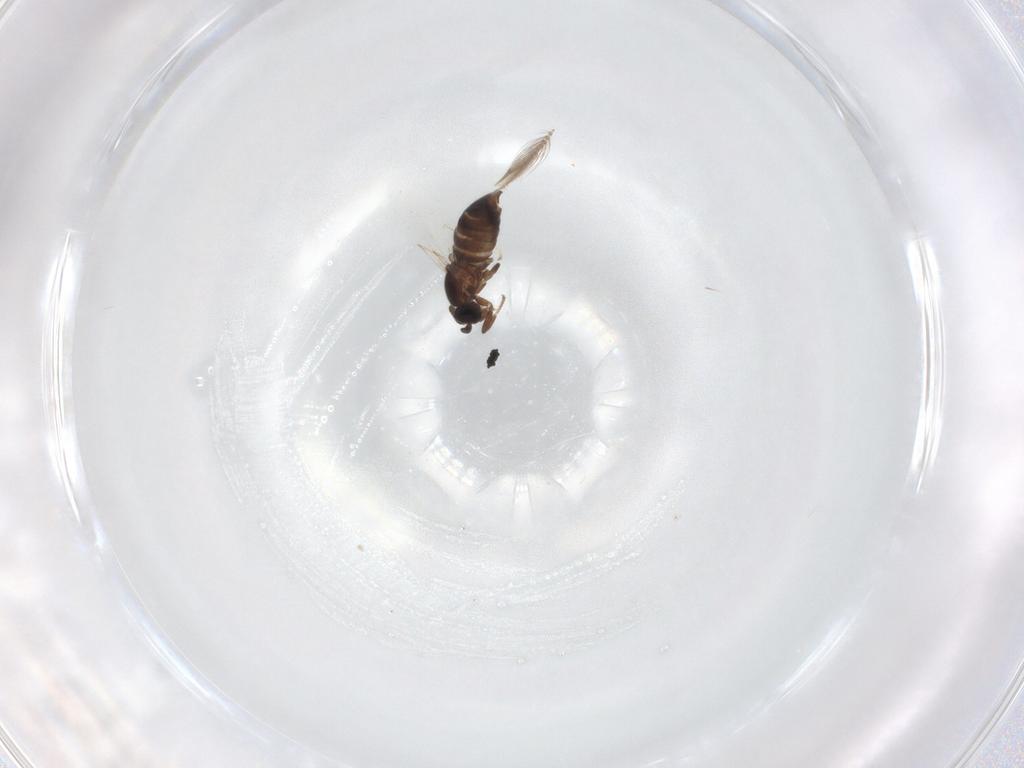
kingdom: Animalia
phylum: Arthropoda
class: Insecta
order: Diptera
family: Scatopsidae
